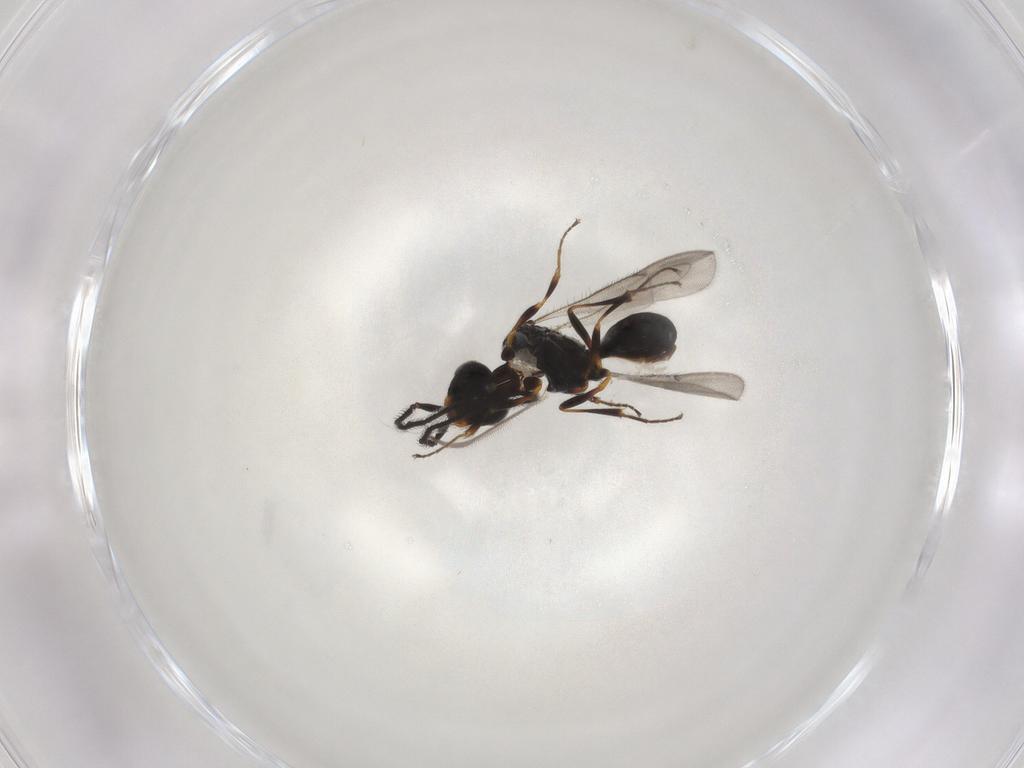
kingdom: Animalia
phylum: Arthropoda
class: Insecta
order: Hymenoptera
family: Scelionidae
